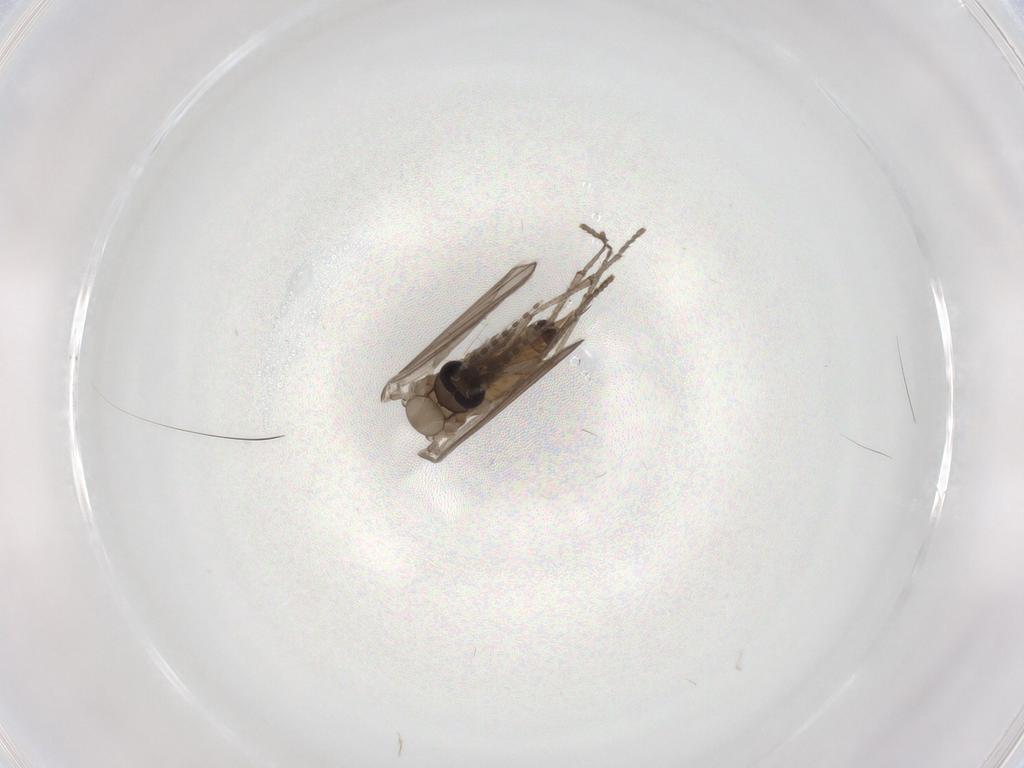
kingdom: Animalia
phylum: Arthropoda
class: Insecta
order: Diptera
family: Psychodidae
